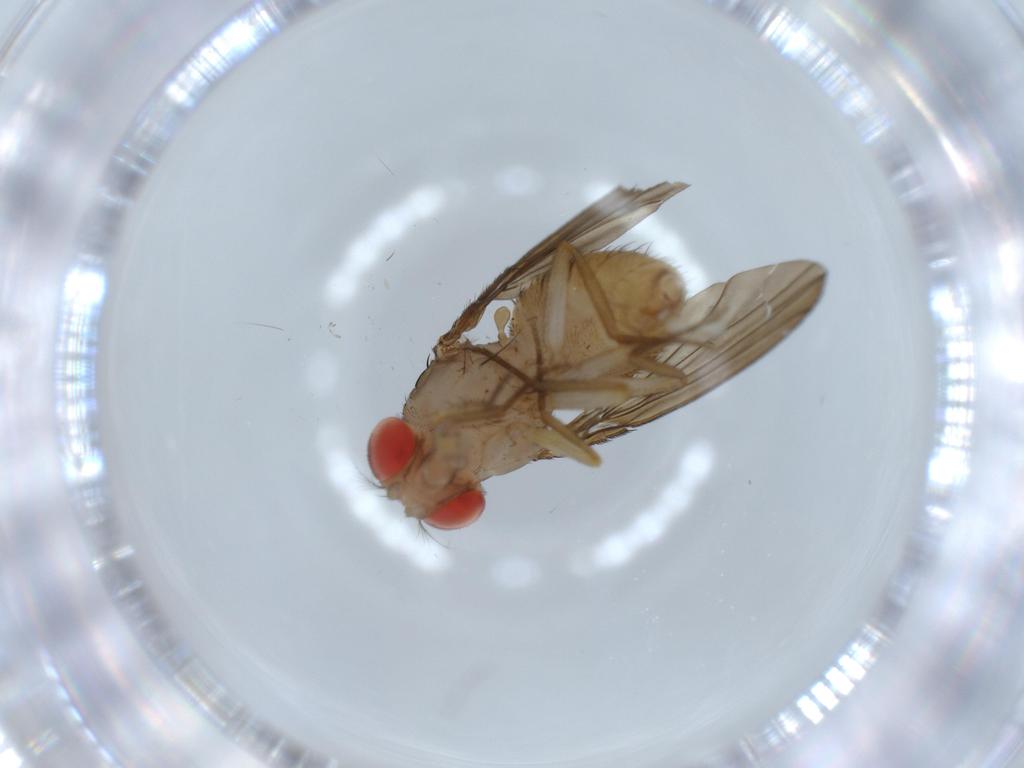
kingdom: Animalia
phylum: Arthropoda
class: Insecta
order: Diptera
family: Drosophilidae
